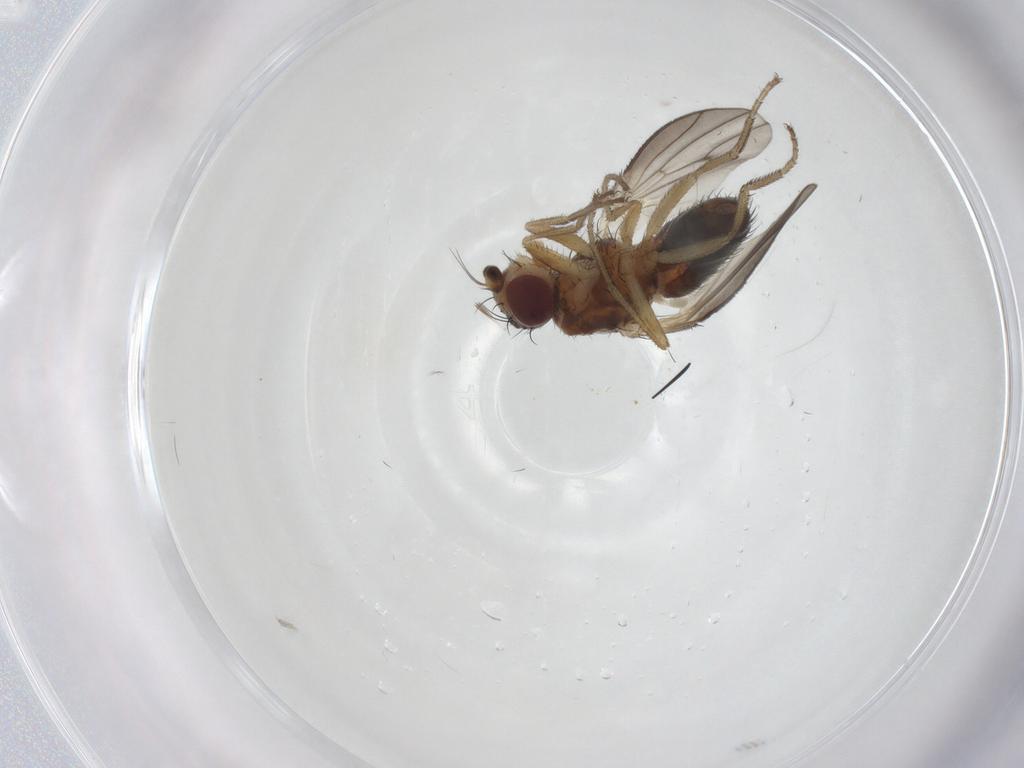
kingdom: Animalia
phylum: Arthropoda
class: Insecta
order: Diptera
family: Heleomyzidae
